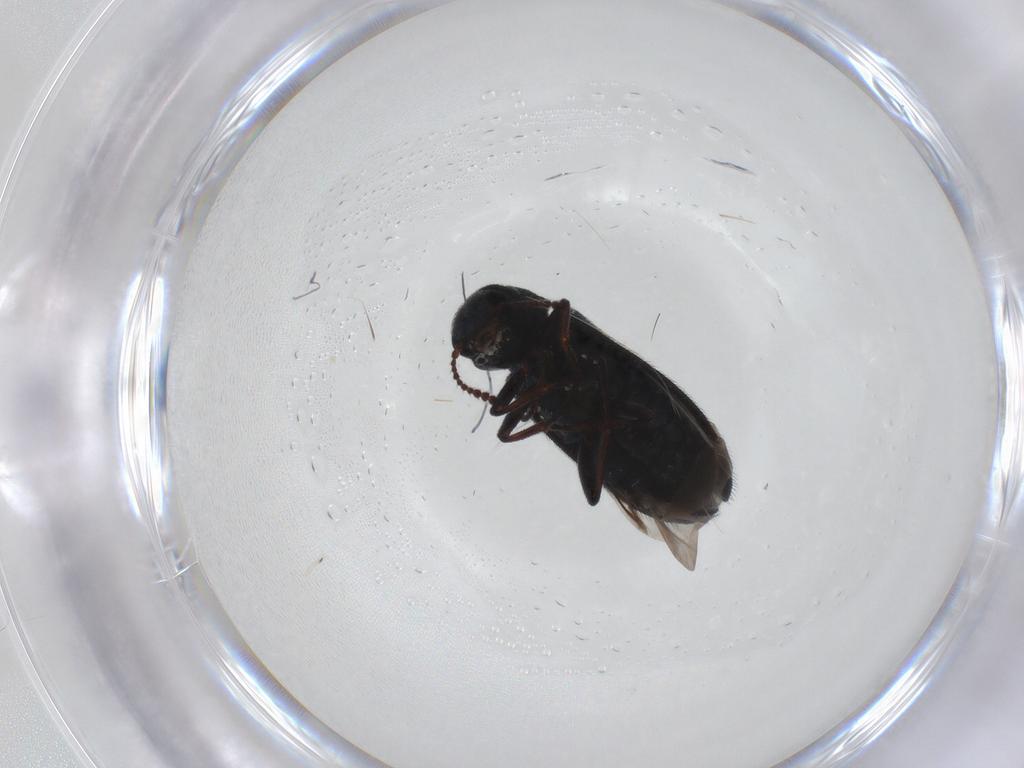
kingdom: Animalia
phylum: Arthropoda
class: Insecta
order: Coleoptera
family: Melyridae
